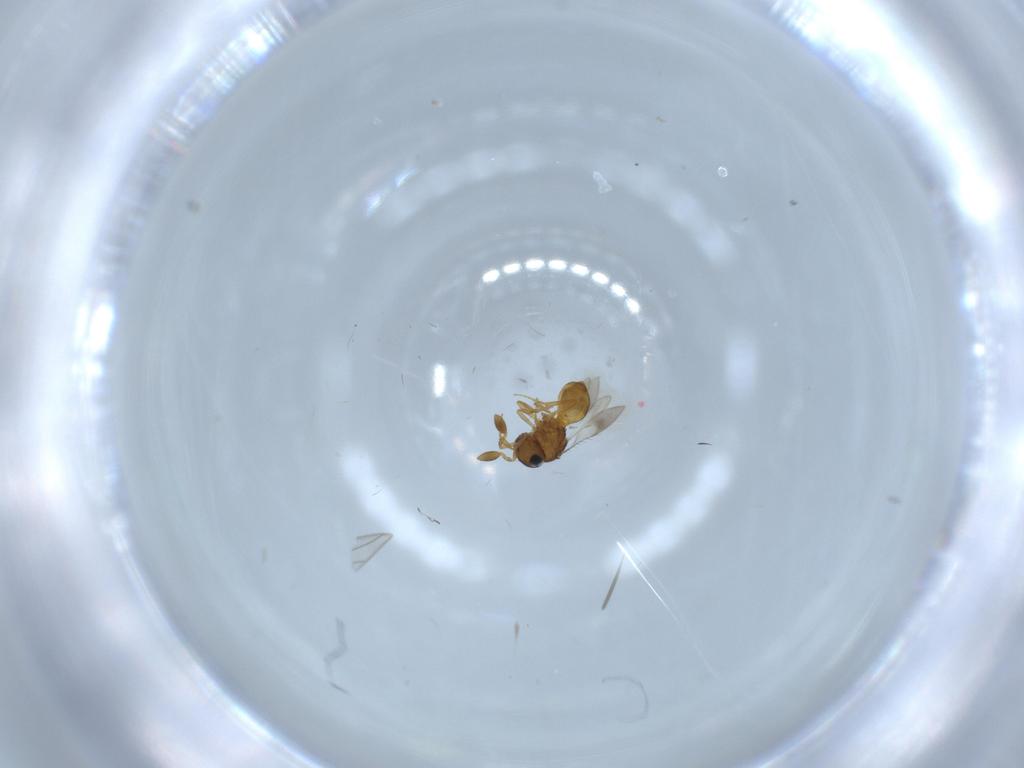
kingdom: Animalia
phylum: Arthropoda
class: Insecta
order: Hymenoptera
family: Scelionidae
